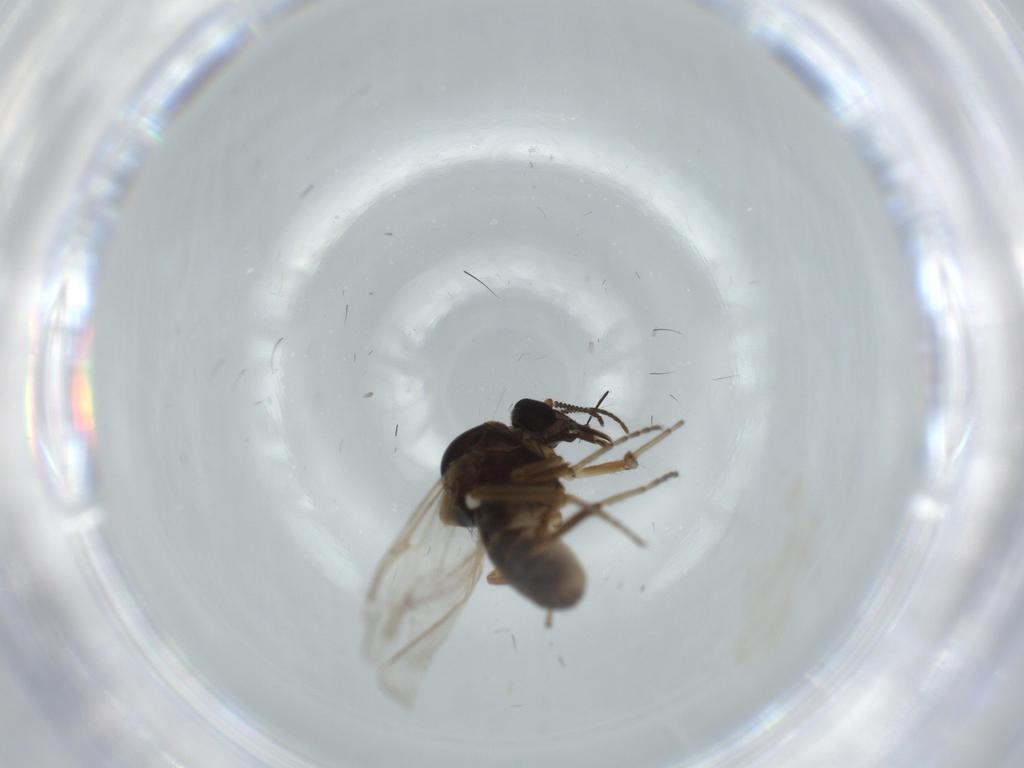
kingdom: Animalia
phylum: Arthropoda
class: Insecta
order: Diptera
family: Ceratopogonidae
